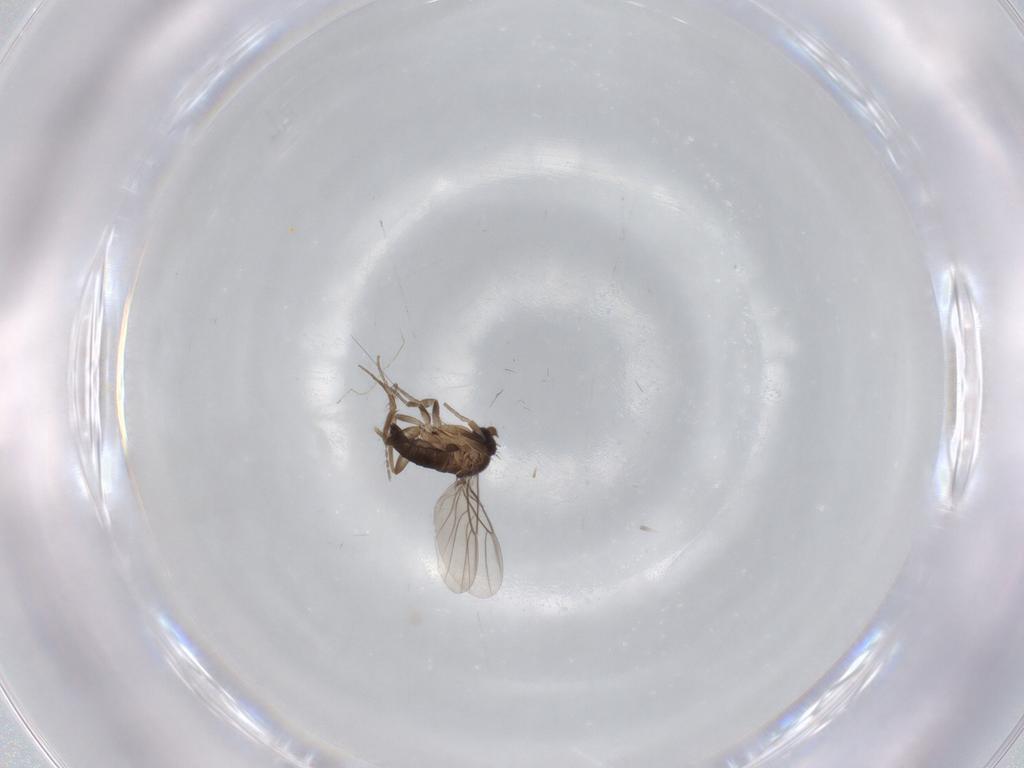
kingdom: Animalia
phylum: Arthropoda
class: Insecta
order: Diptera
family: Phoridae
